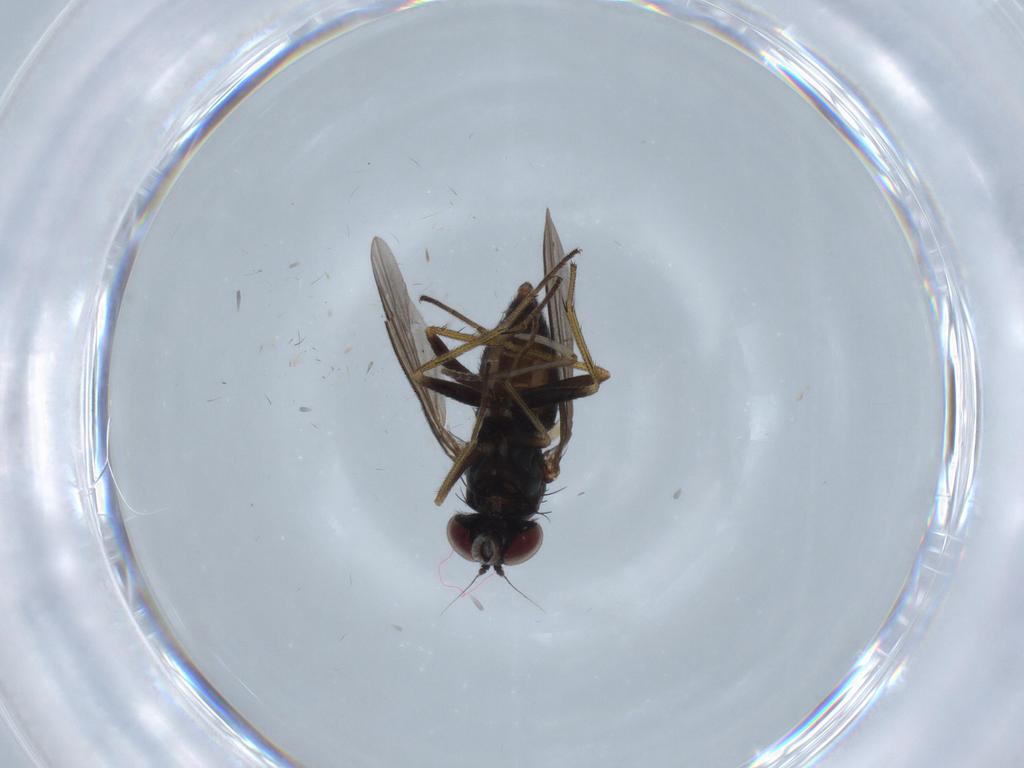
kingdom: Animalia
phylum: Arthropoda
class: Insecta
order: Diptera
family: Dolichopodidae
